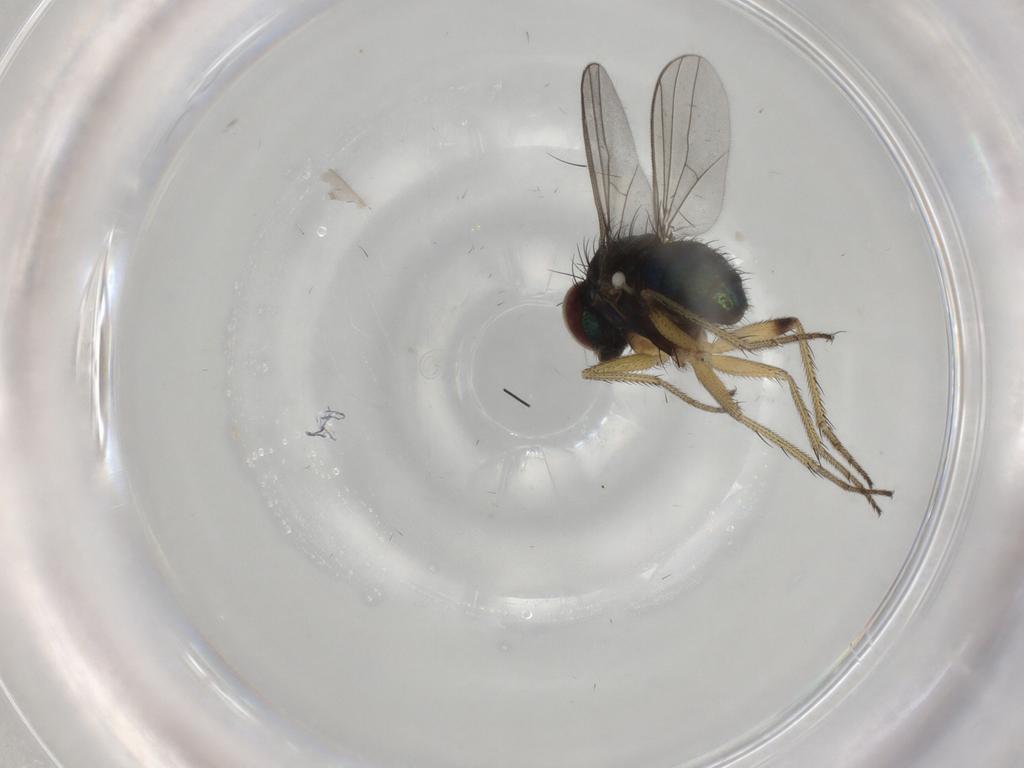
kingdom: Animalia
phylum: Arthropoda
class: Insecta
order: Diptera
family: Dolichopodidae
